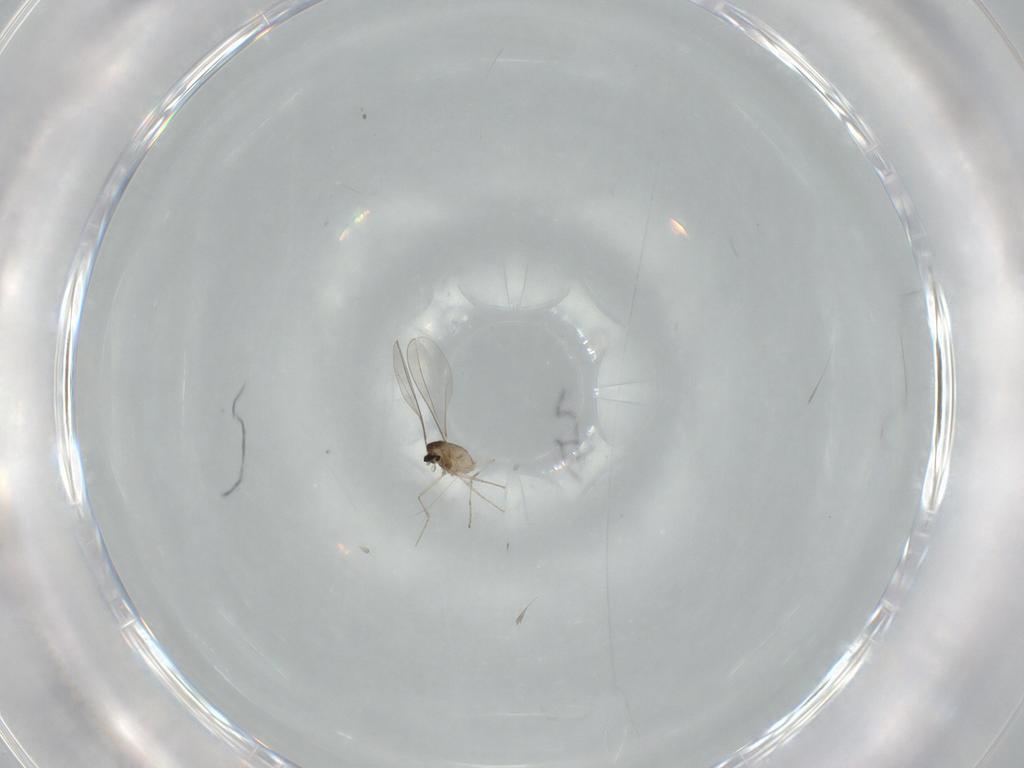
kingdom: Animalia
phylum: Arthropoda
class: Insecta
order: Diptera
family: Cecidomyiidae
